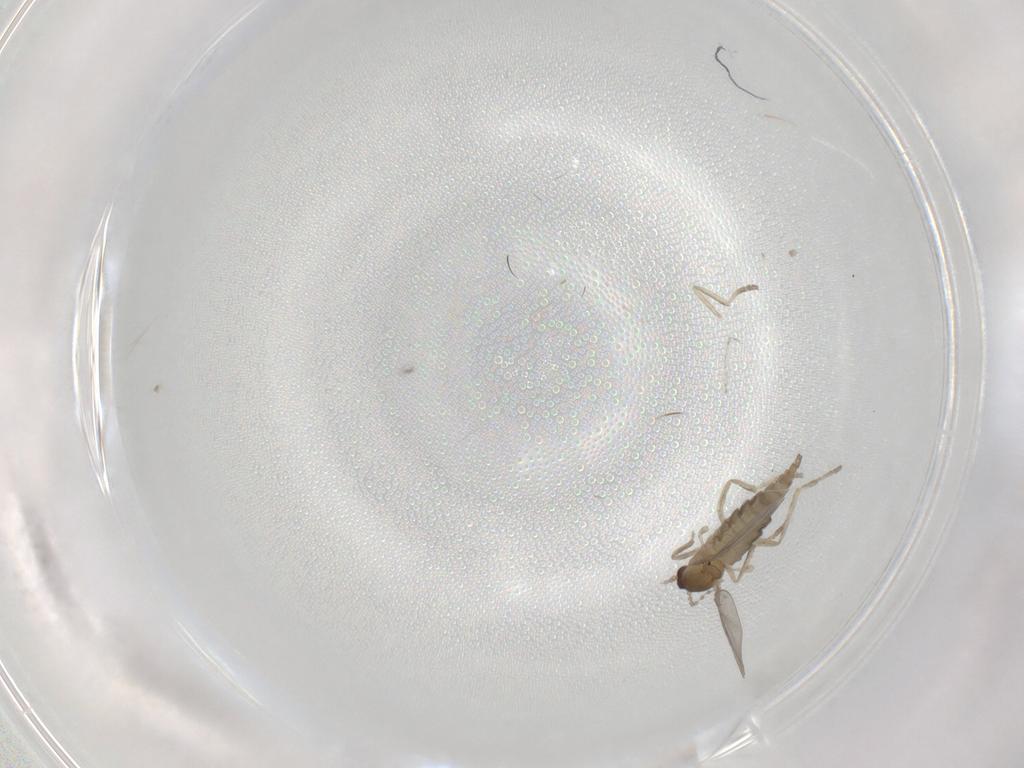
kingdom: Animalia
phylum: Arthropoda
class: Insecta
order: Diptera
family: Cecidomyiidae
